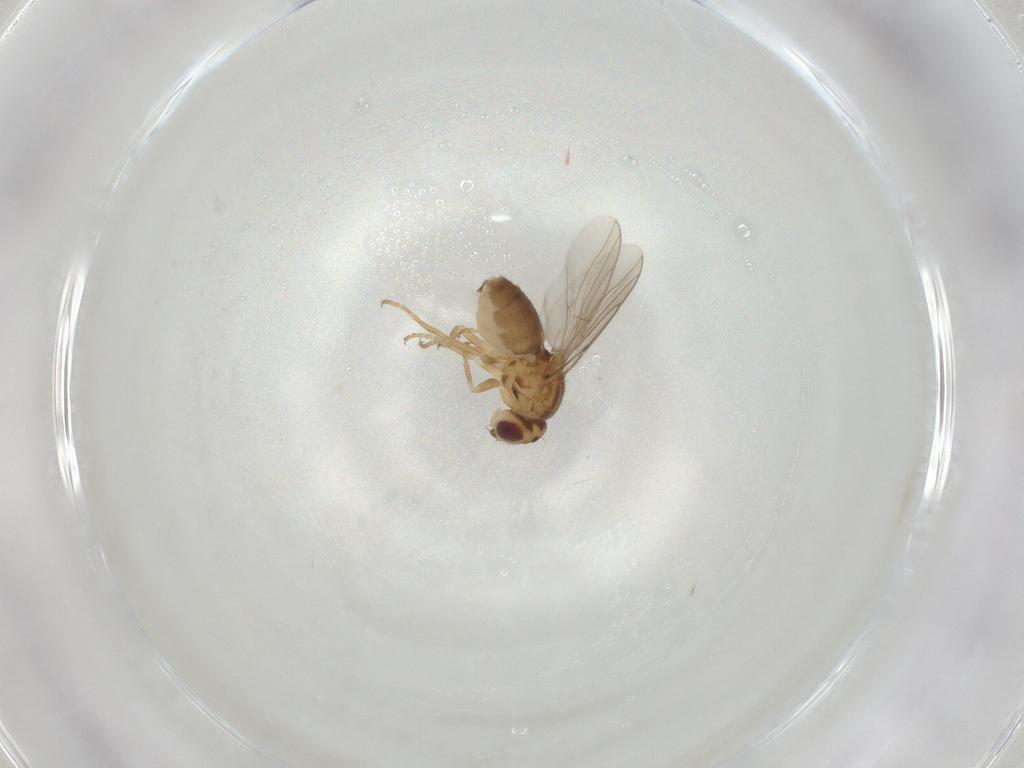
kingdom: Animalia
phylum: Arthropoda
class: Insecta
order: Diptera
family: Chloropidae
